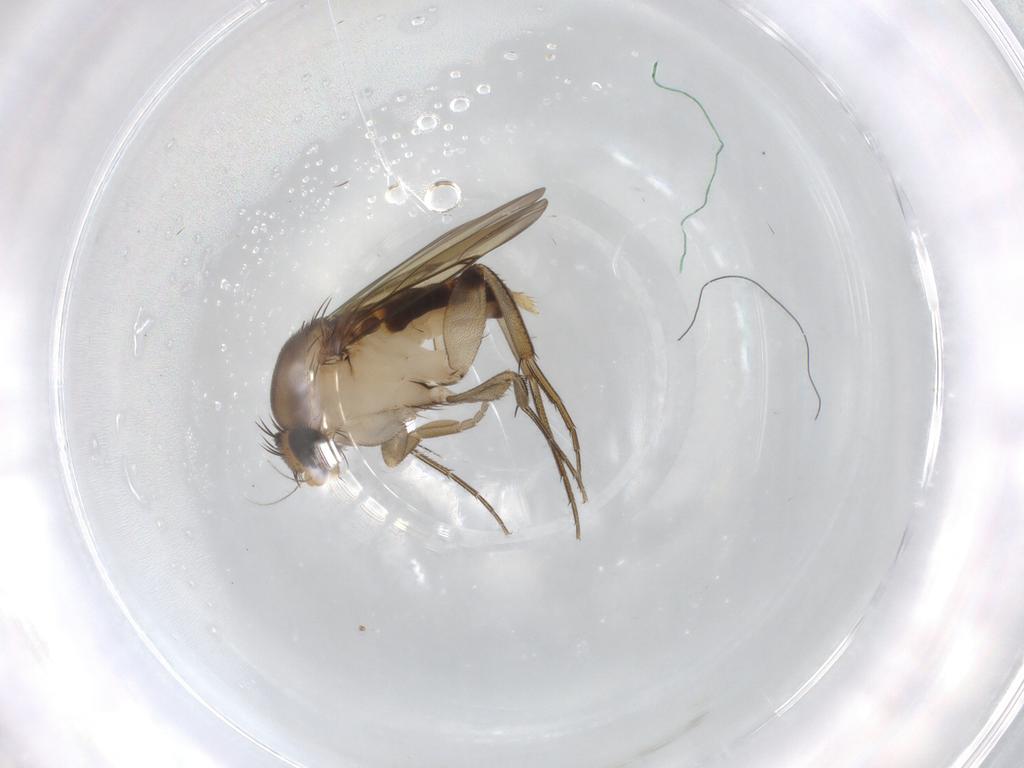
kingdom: Animalia
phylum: Arthropoda
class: Insecta
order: Diptera
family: Phoridae
